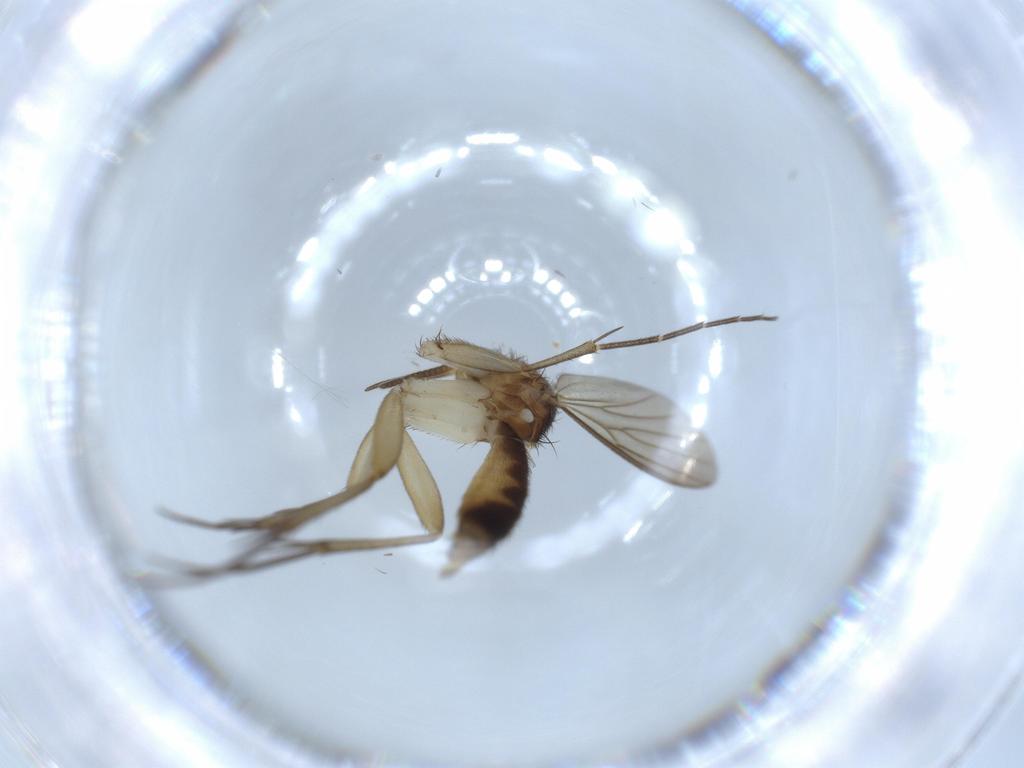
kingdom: Animalia
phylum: Arthropoda
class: Insecta
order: Diptera
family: Mycetophilidae
